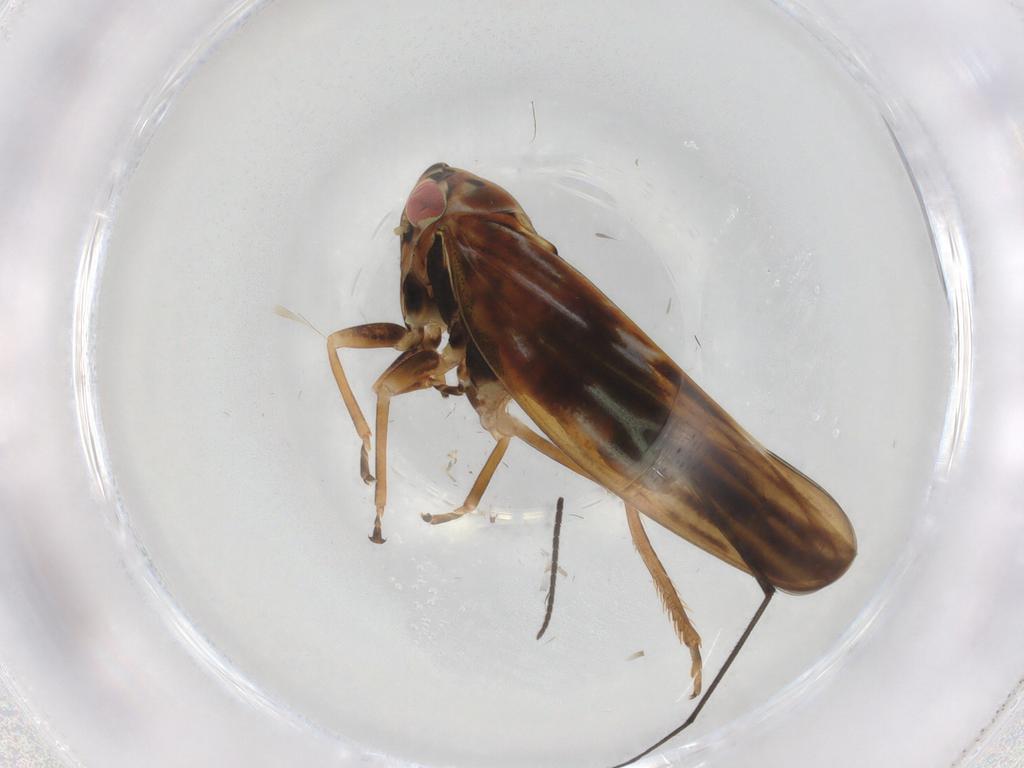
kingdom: Animalia
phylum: Arthropoda
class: Insecta
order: Hemiptera
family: Cicadellidae
